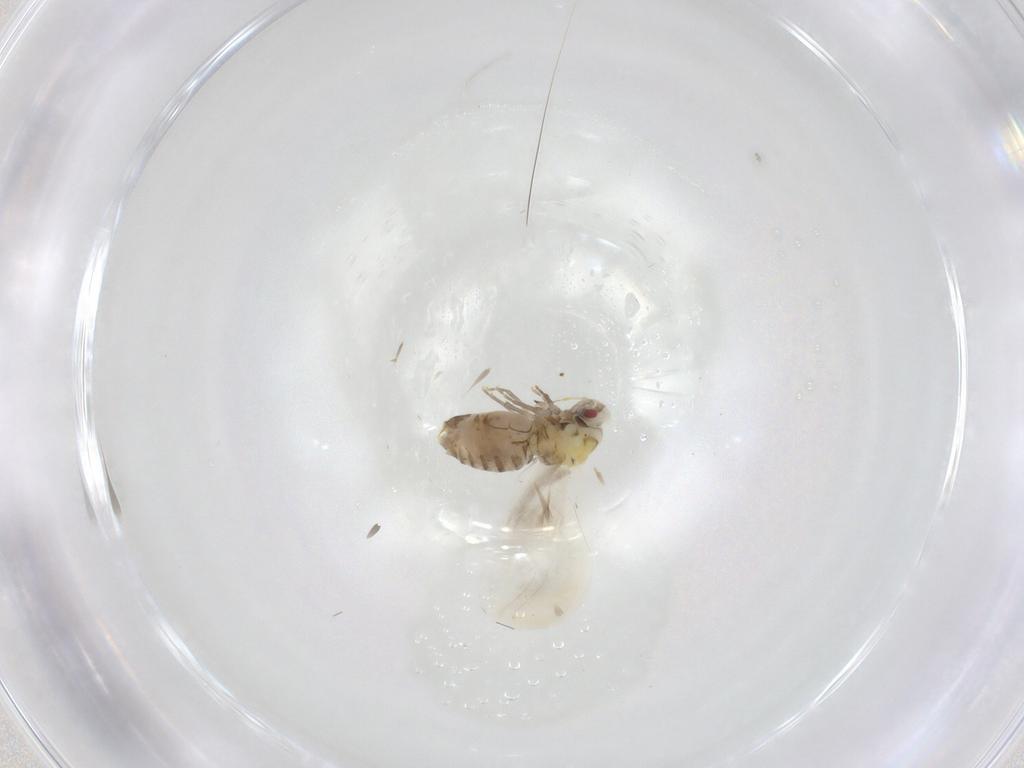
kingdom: Animalia
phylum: Arthropoda
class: Insecta
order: Hemiptera
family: Aleyrodidae
